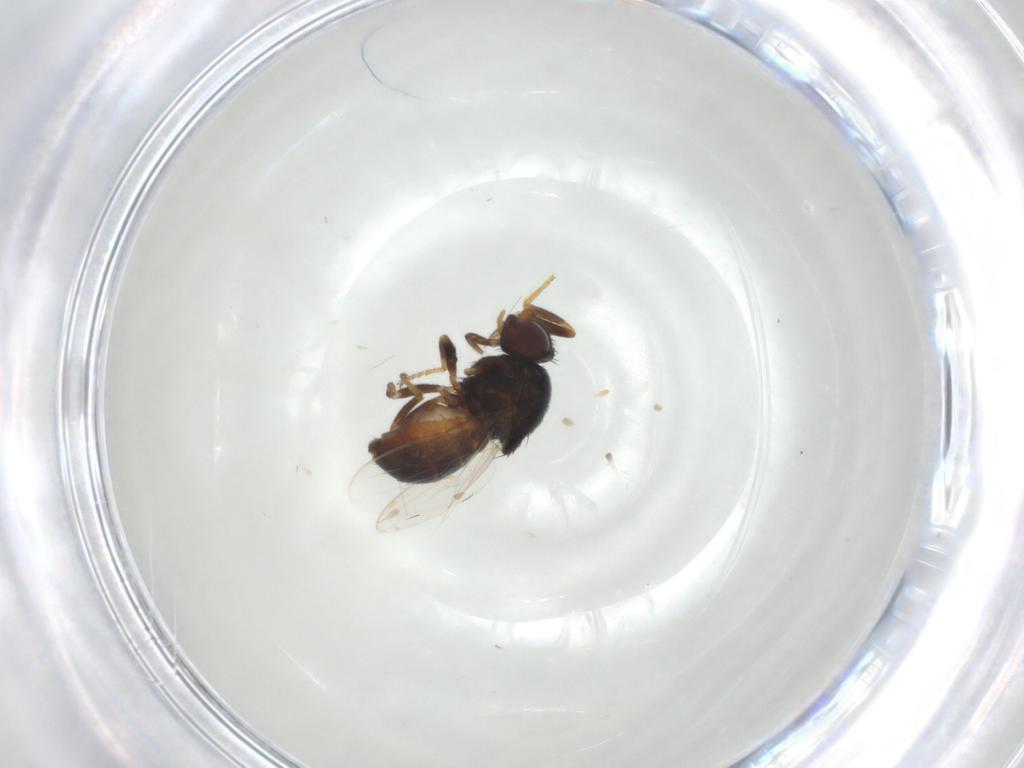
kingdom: Animalia
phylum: Arthropoda
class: Insecta
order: Diptera
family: Chloropidae
